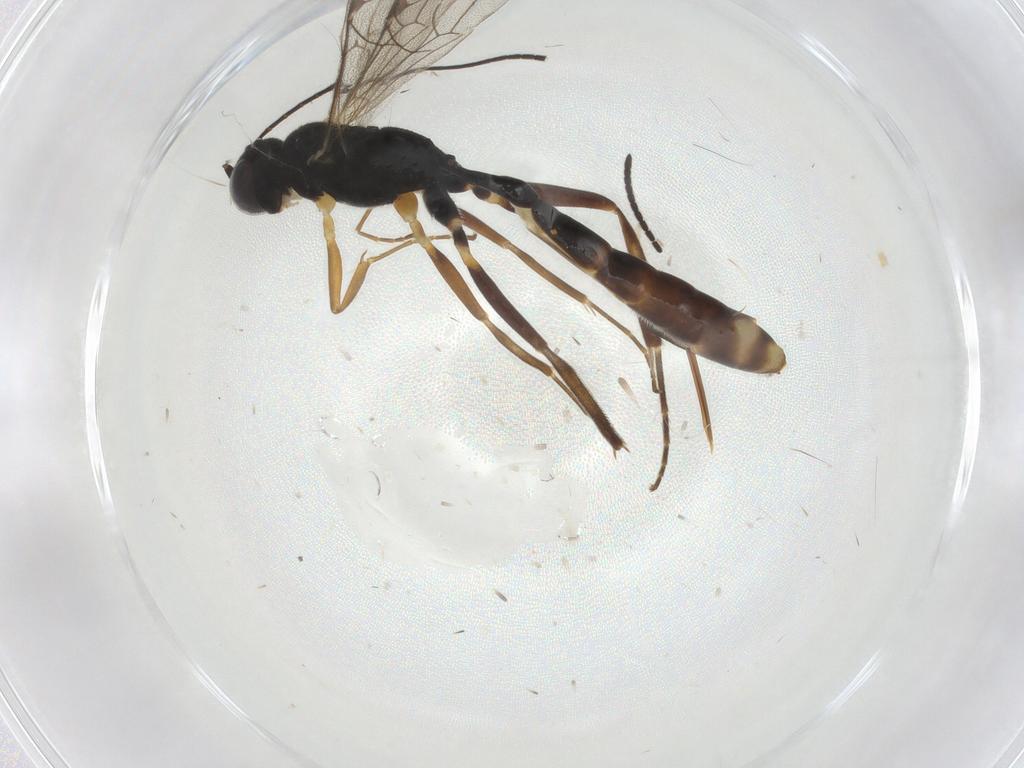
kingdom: Animalia
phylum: Arthropoda
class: Insecta
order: Hymenoptera
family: Ichneumonidae
